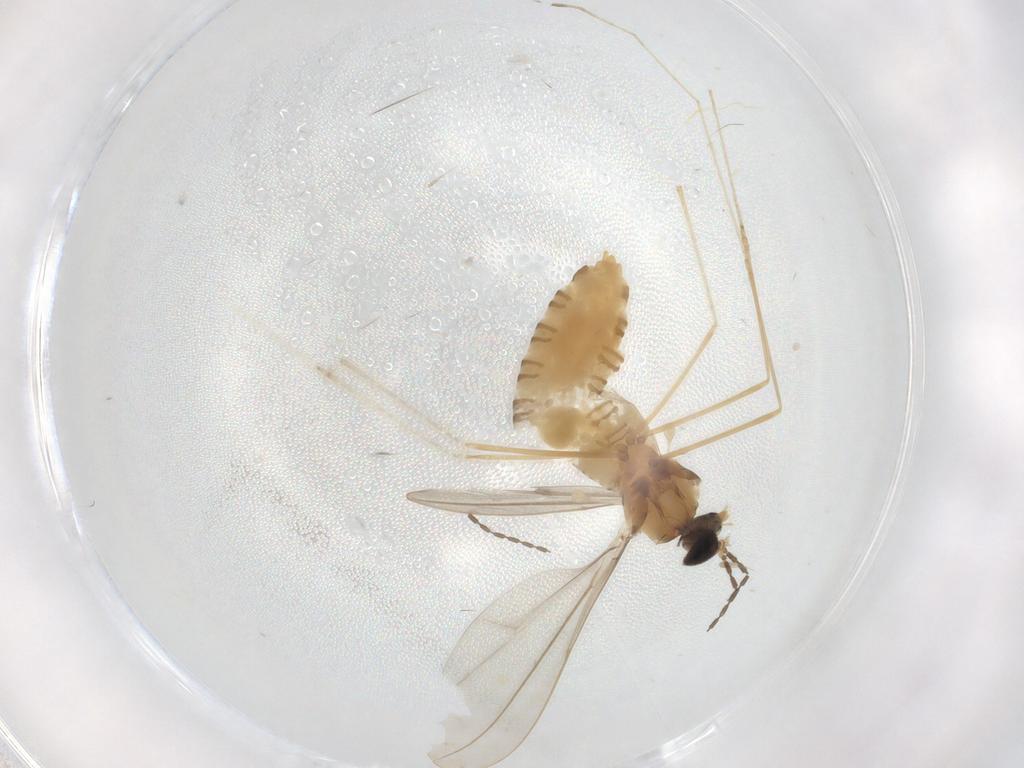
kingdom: Animalia
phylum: Arthropoda
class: Insecta
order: Diptera
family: Cecidomyiidae
